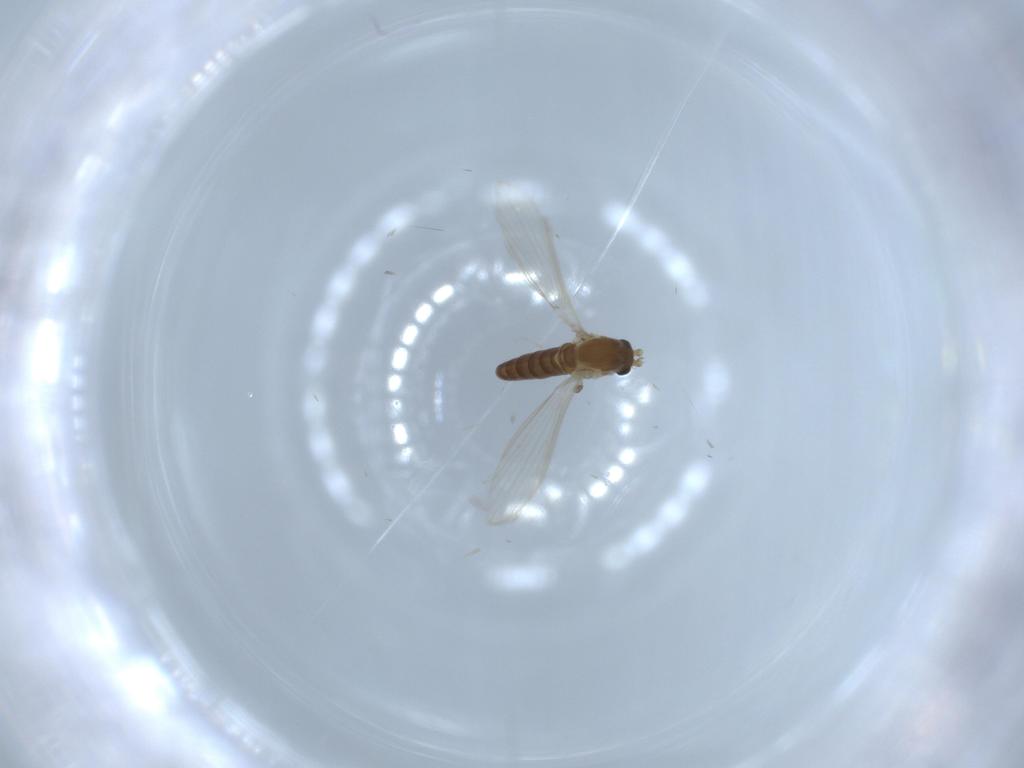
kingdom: Animalia
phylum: Arthropoda
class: Insecta
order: Diptera
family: Psychodidae
